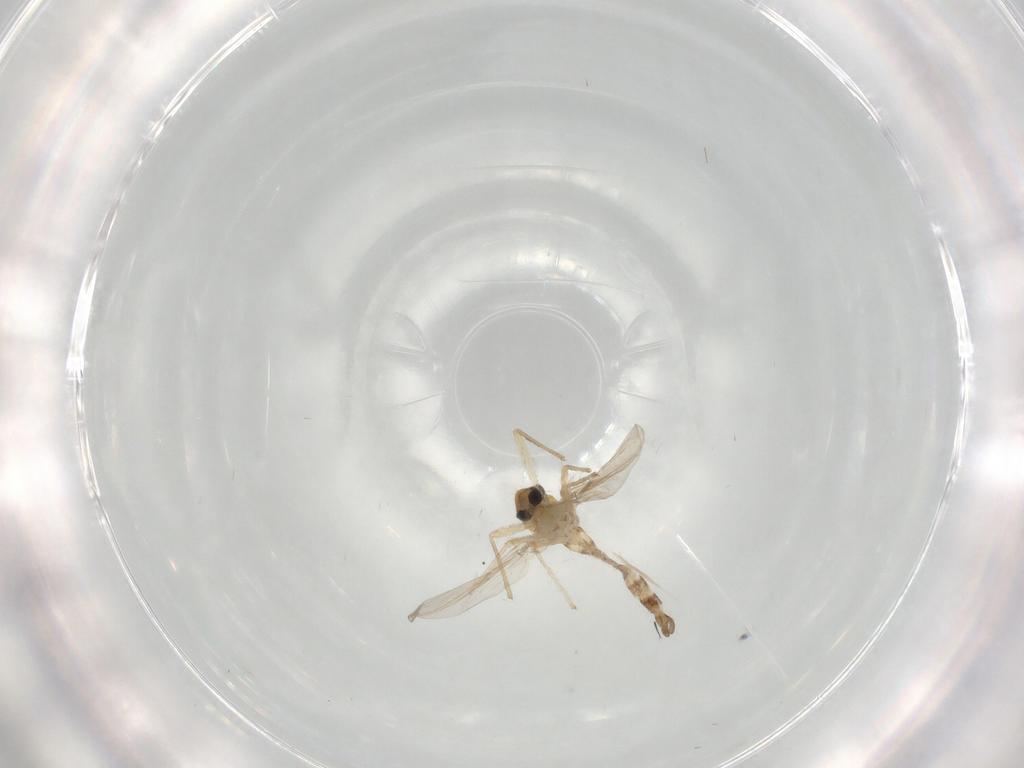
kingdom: Animalia
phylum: Arthropoda
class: Insecta
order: Diptera
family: Chironomidae
